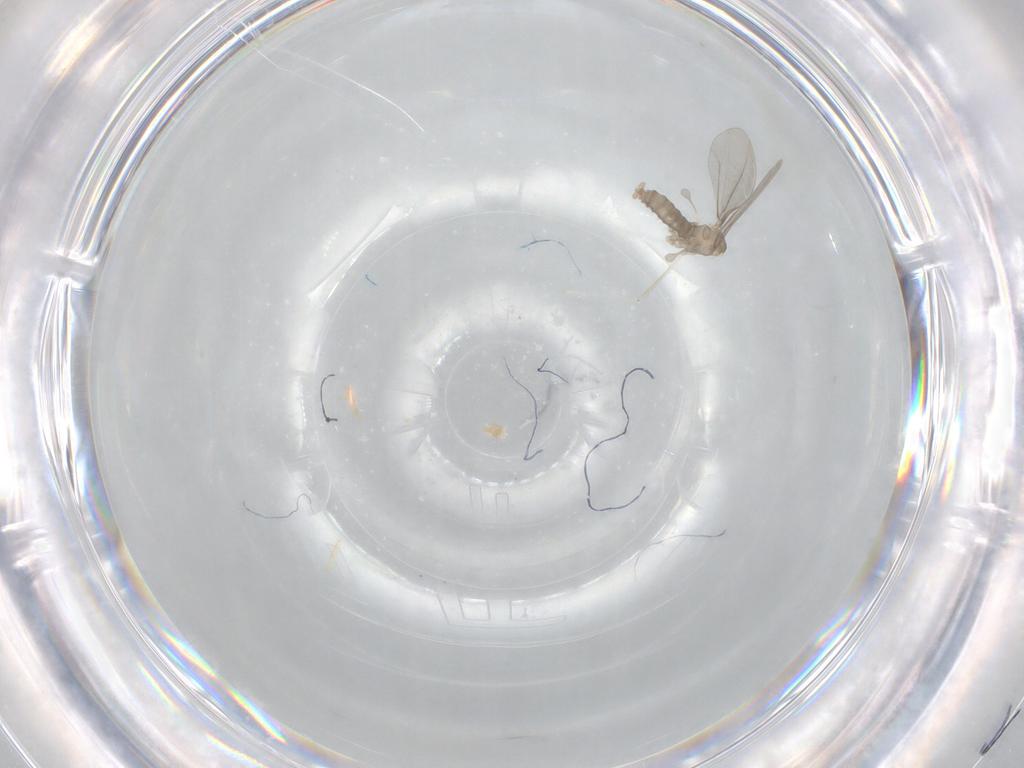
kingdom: Animalia
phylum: Arthropoda
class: Insecta
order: Diptera
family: Cecidomyiidae
